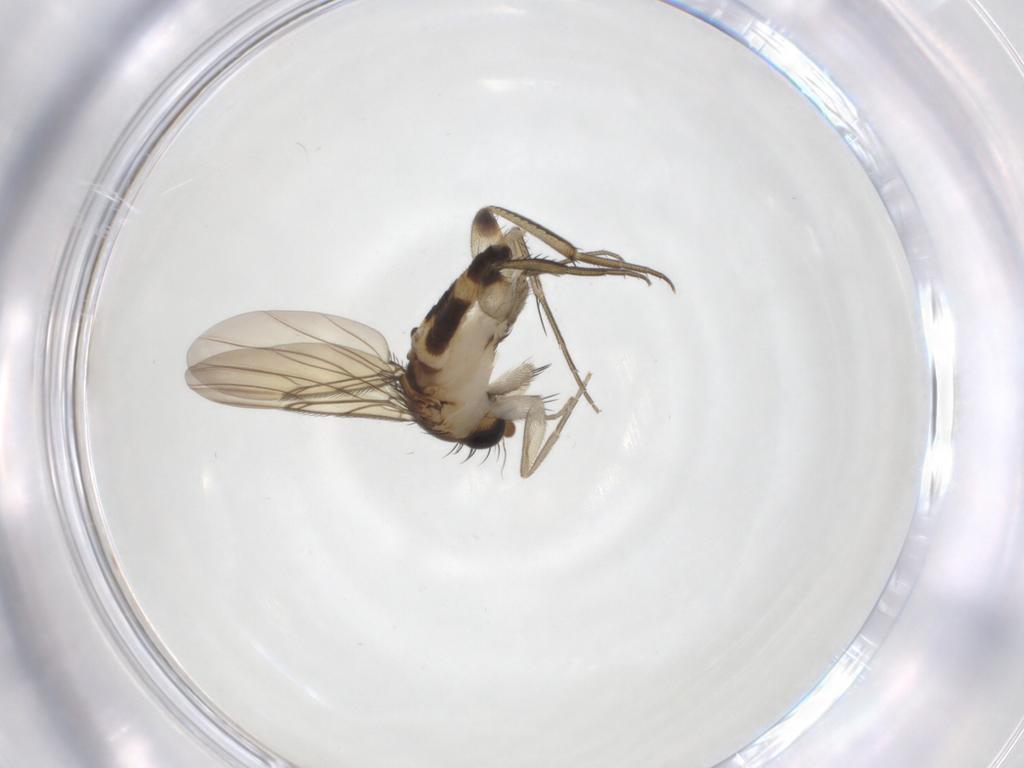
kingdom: Animalia
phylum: Arthropoda
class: Insecta
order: Diptera
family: Phoridae
